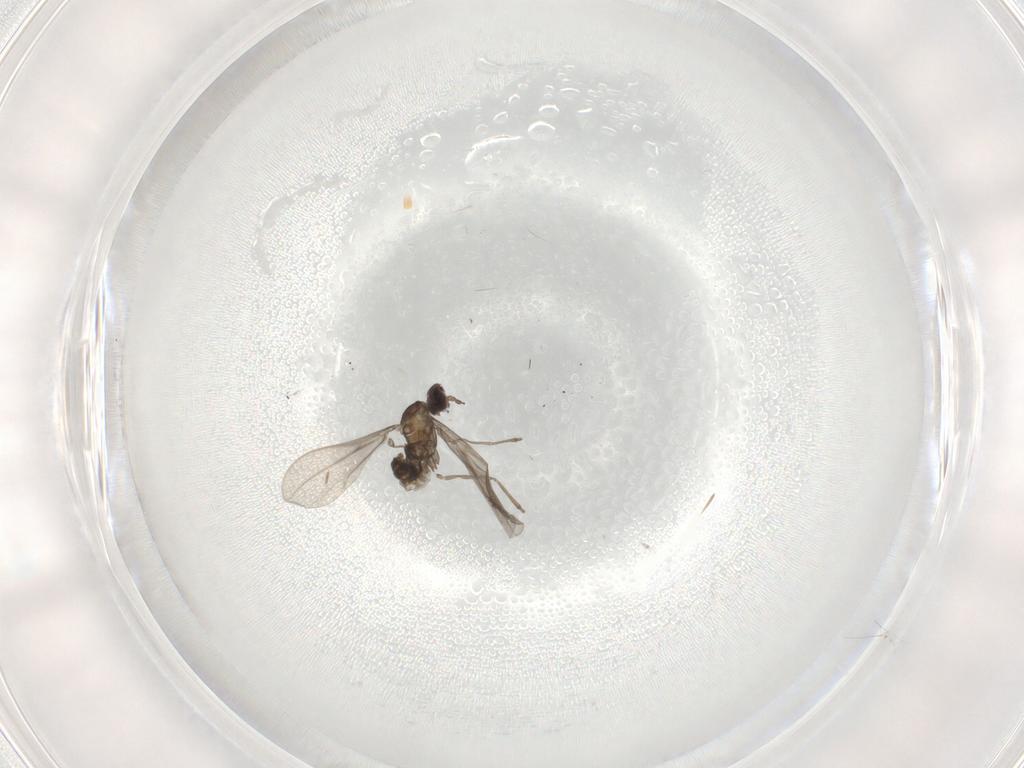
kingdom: Animalia
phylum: Arthropoda
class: Insecta
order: Diptera
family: Cecidomyiidae
